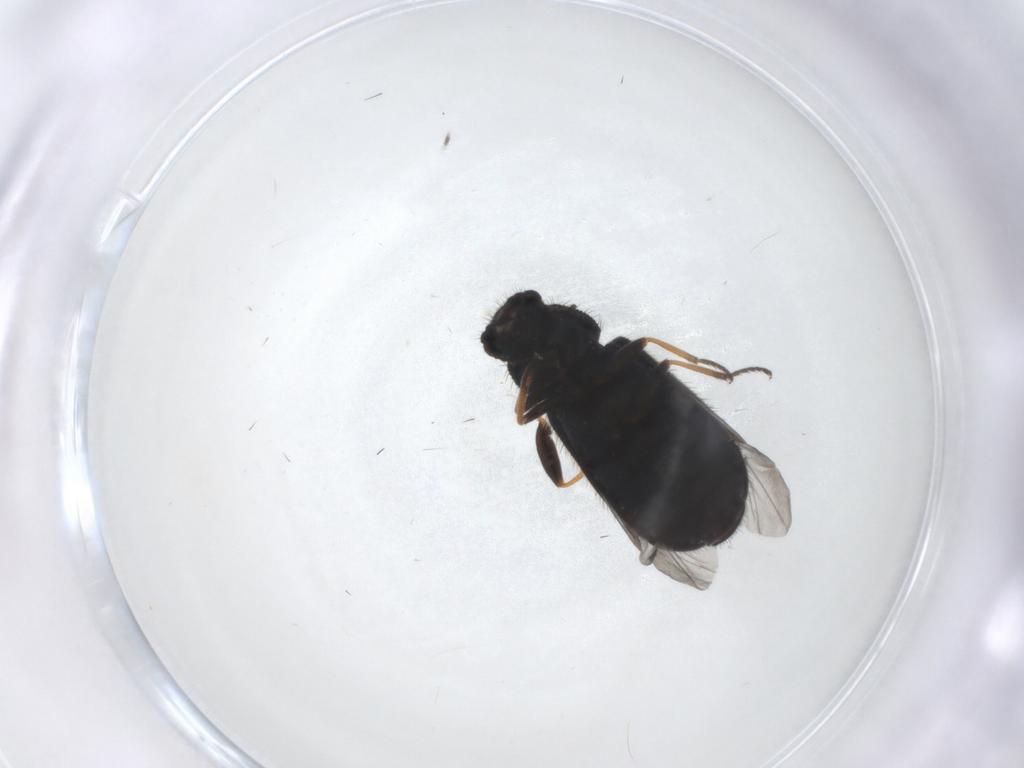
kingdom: Animalia
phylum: Arthropoda
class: Insecta
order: Coleoptera
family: Melyridae
